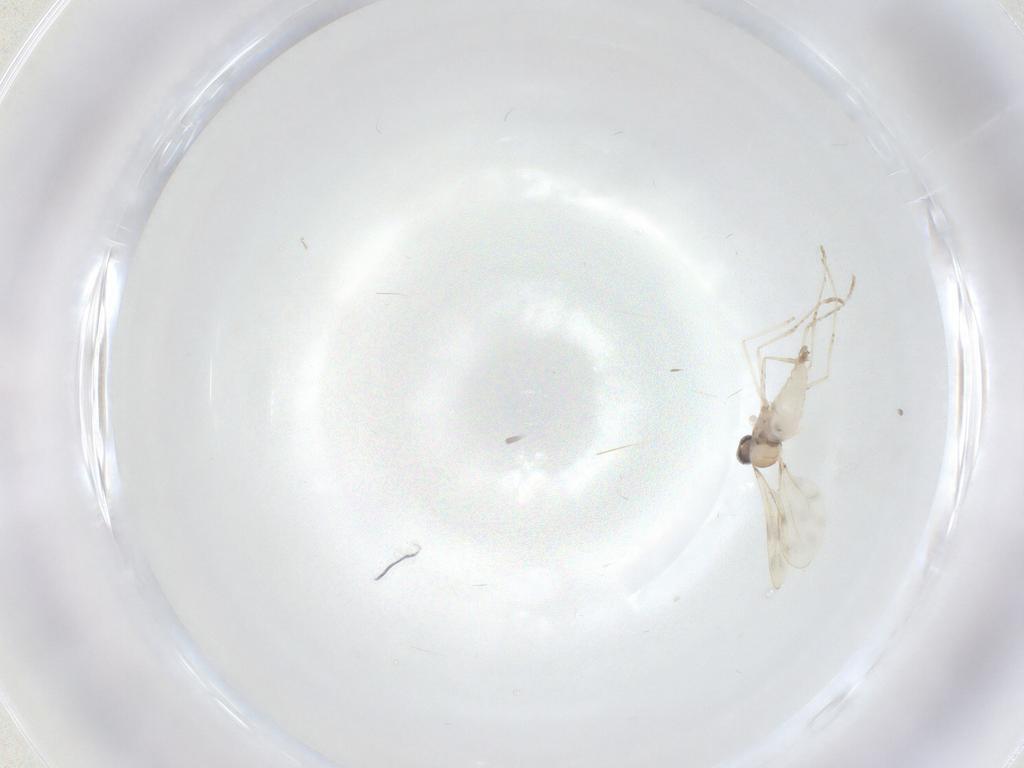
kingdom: Animalia
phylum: Arthropoda
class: Insecta
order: Diptera
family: Cecidomyiidae
